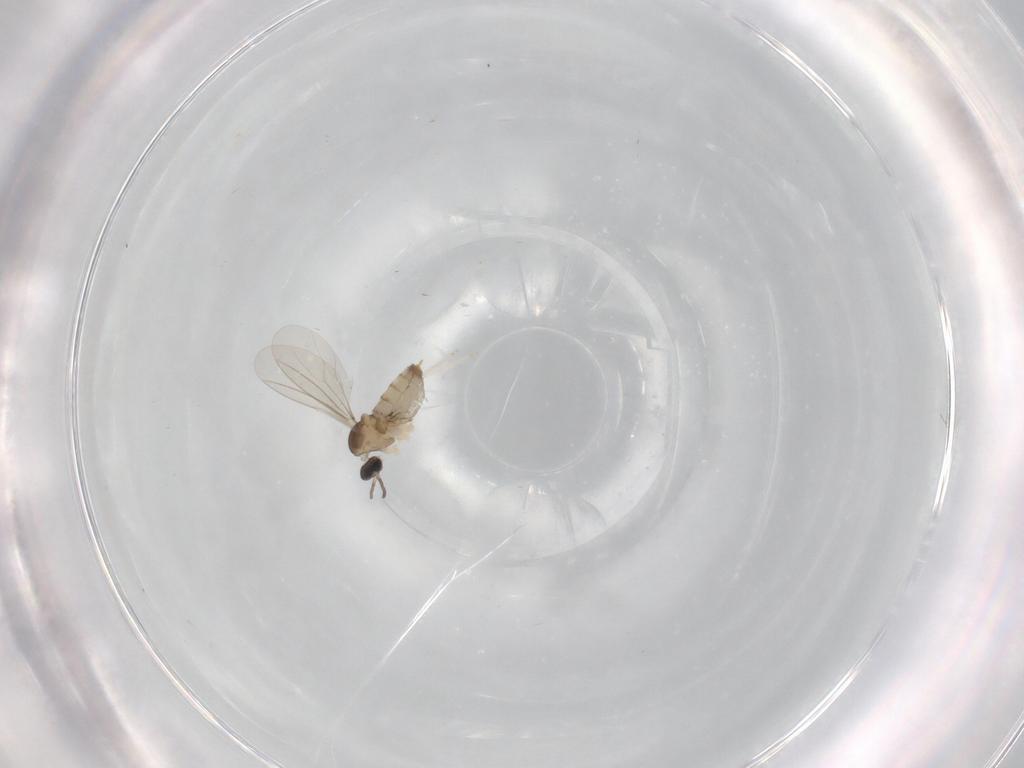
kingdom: Animalia
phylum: Arthropoda
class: Insecta
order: Diptera
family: Cecidomyiidae
